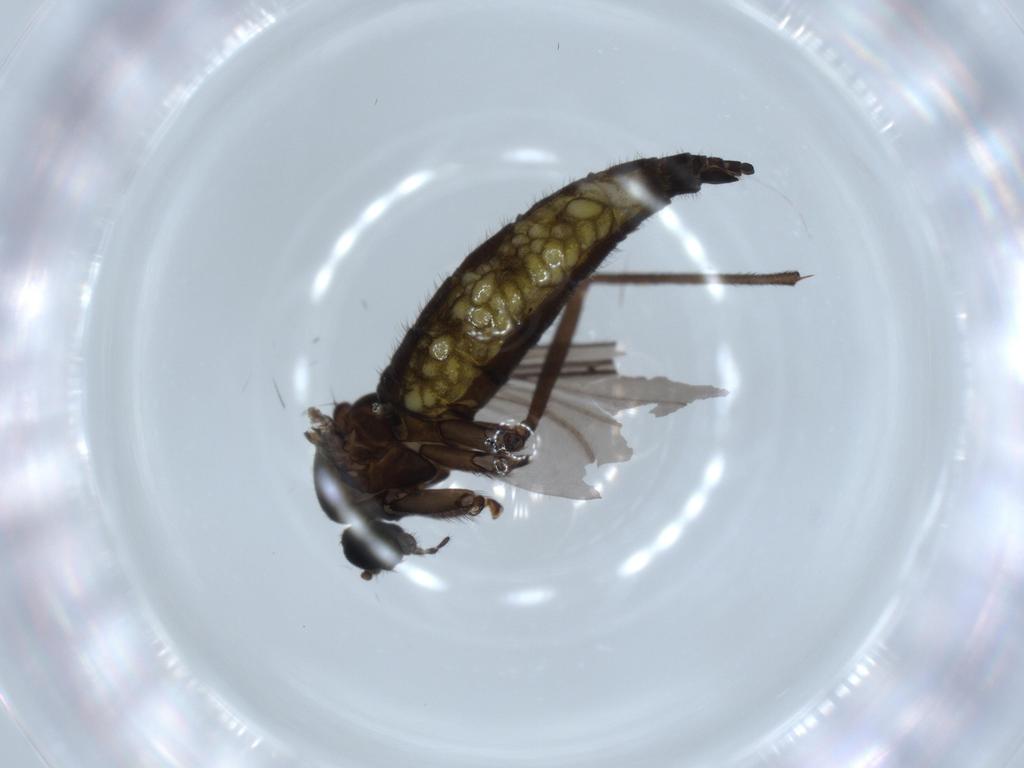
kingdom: Animalia
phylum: Arthropoda
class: Insecta
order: Diptera
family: Sciaridae
